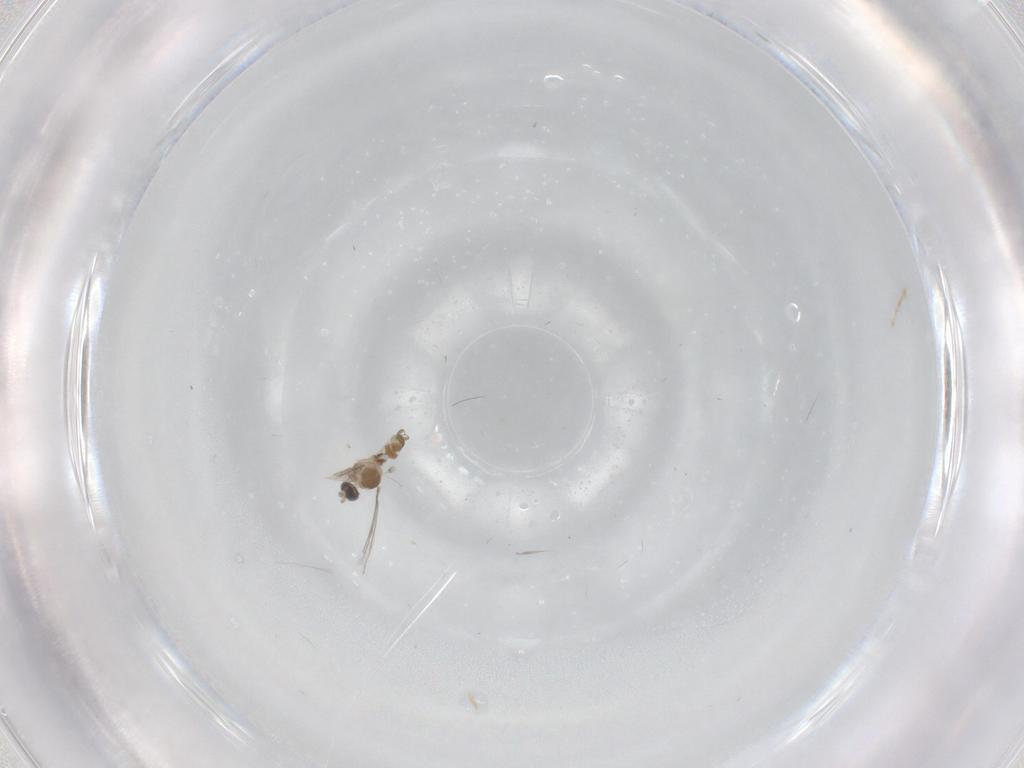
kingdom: Animalia
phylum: Arthropoda
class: Insecta
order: Diptera
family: Cecidomyiidae
